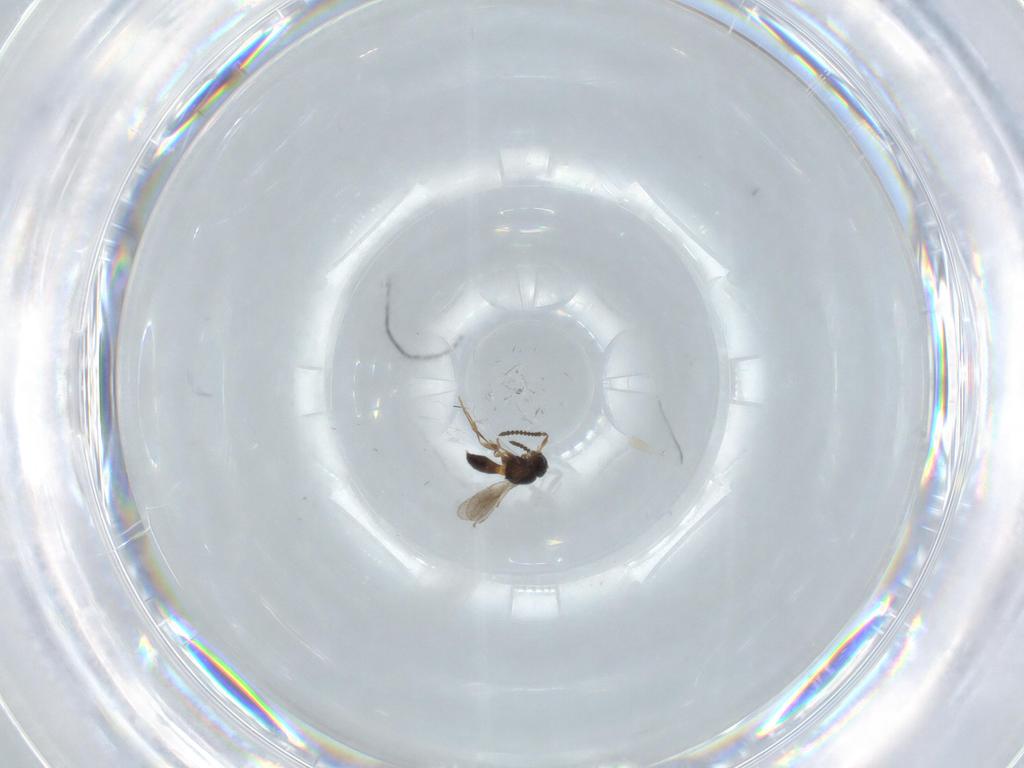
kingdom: Animalia
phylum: Arthropoda
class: Insecta
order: Hymenoptera
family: Scelionidae
